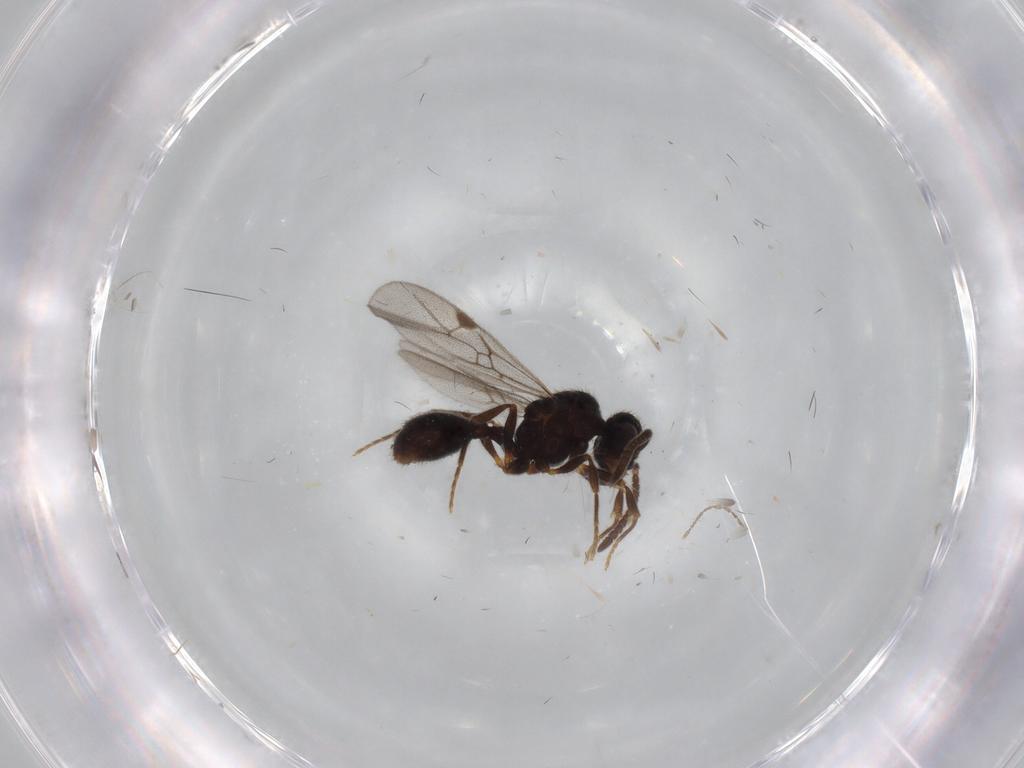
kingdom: Animalia
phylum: Arthropoda
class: Insecta
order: Hymenoptera
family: Formicidae
